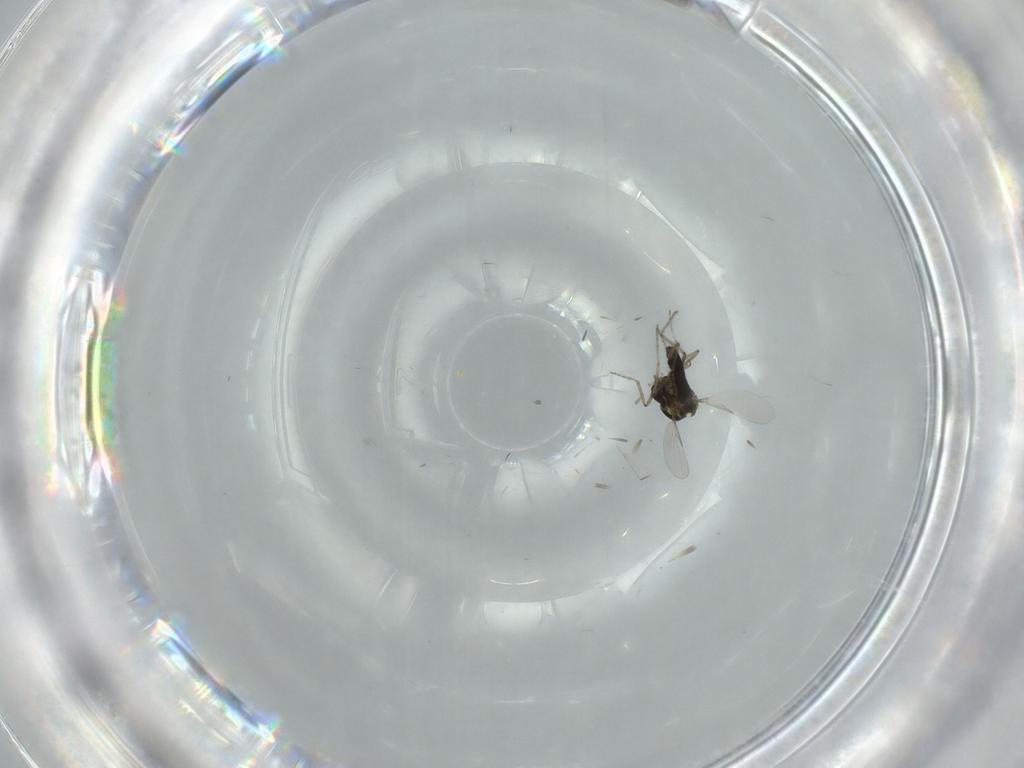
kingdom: Animalia
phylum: Arthropoda
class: Insecta
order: Diptera
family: Ceratopogonidae
